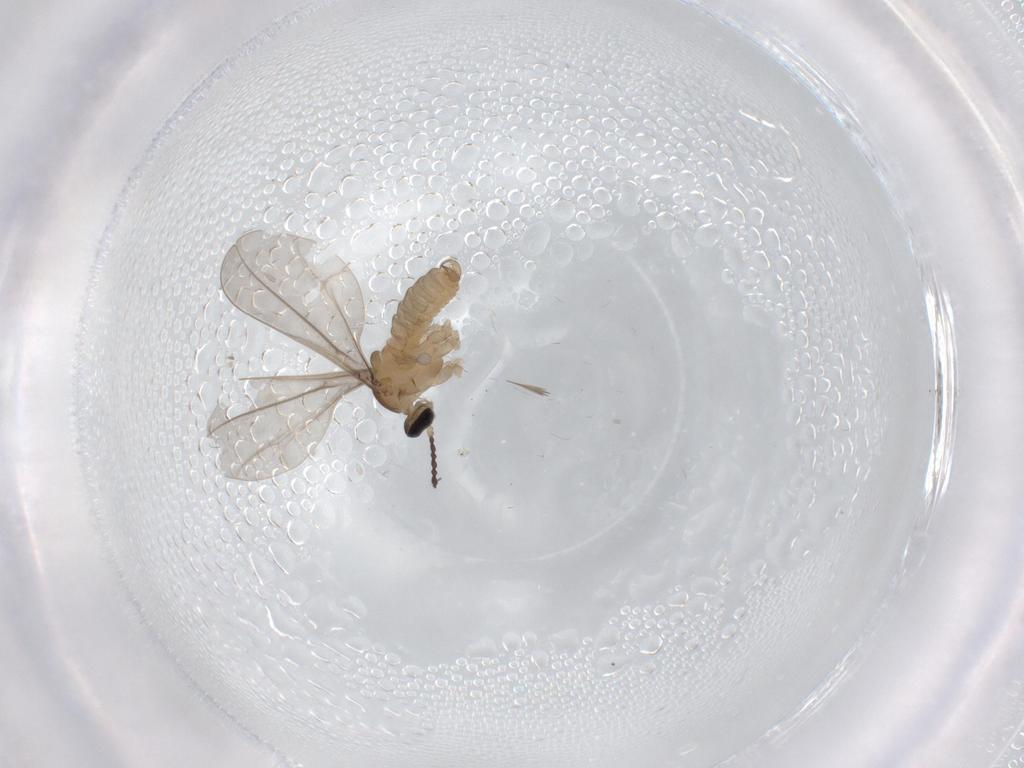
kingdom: Animalia
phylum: Arthropoda
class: Insecta
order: Diptera
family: Cecidomyiidae
